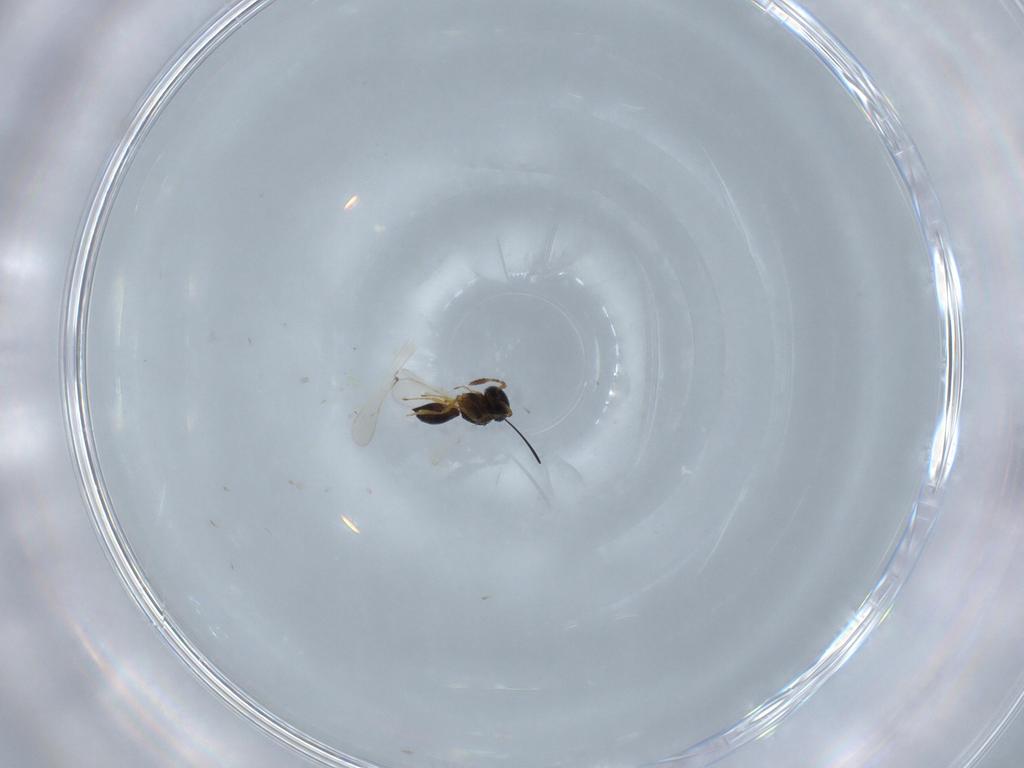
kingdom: Animalia
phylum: Arthropoda
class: Insecta
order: Hymenoptera
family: Scelionidae
